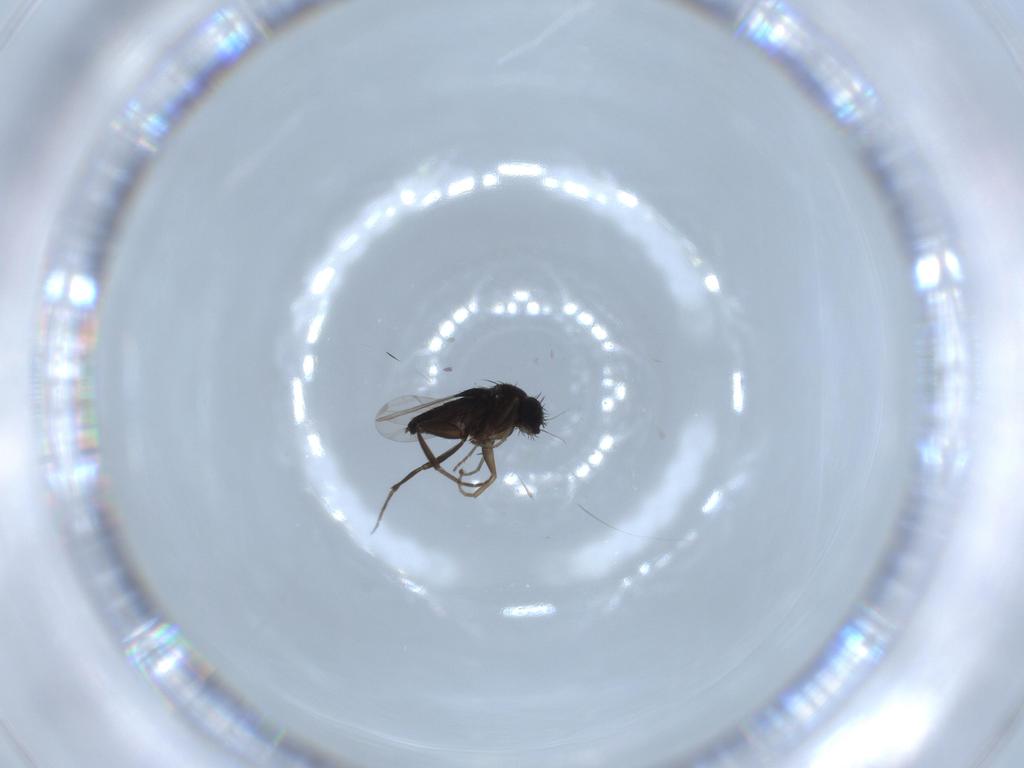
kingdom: Animalia
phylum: Arthropoda
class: Insecta
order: Diptera
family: Phoridae
